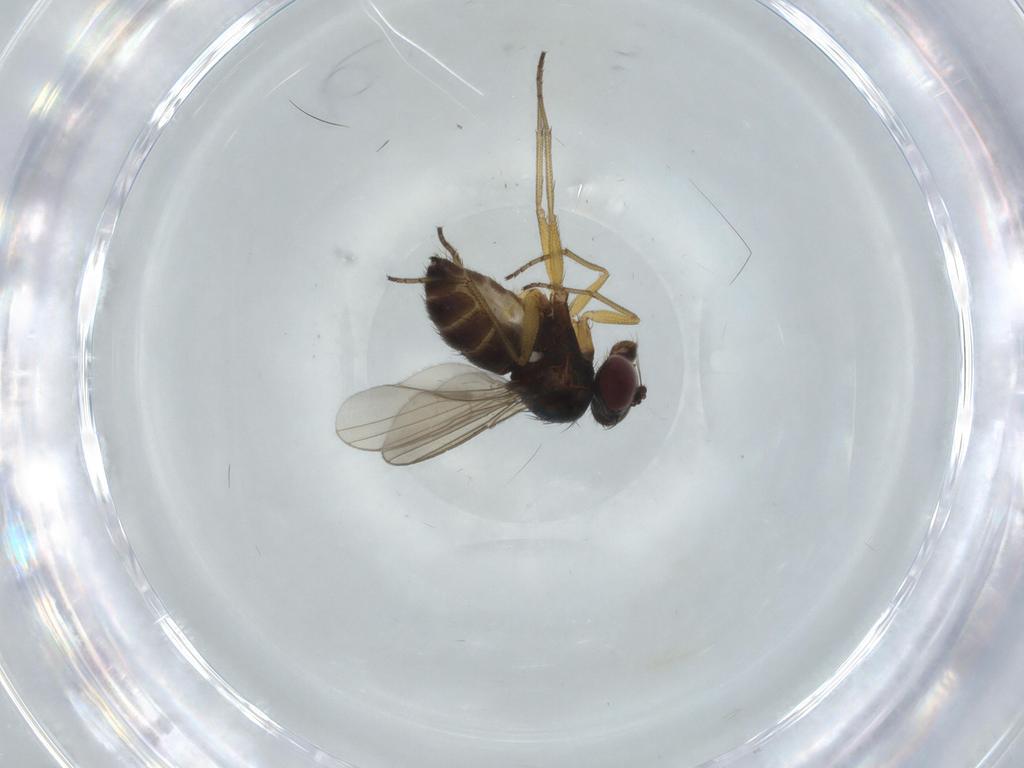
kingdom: Animalia
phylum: Arthropoda
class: Insecta
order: Diptera
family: Dolichopodidae
